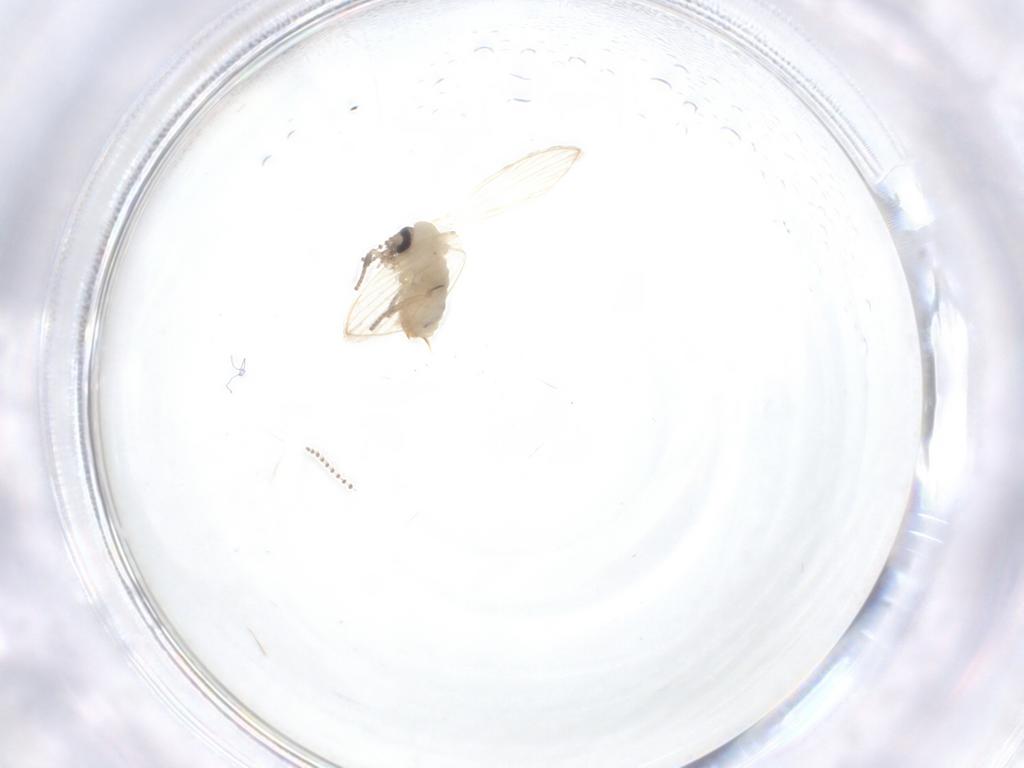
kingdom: Animalia
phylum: Arthropoda
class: Insecta
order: Diptera
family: Psychodidae
